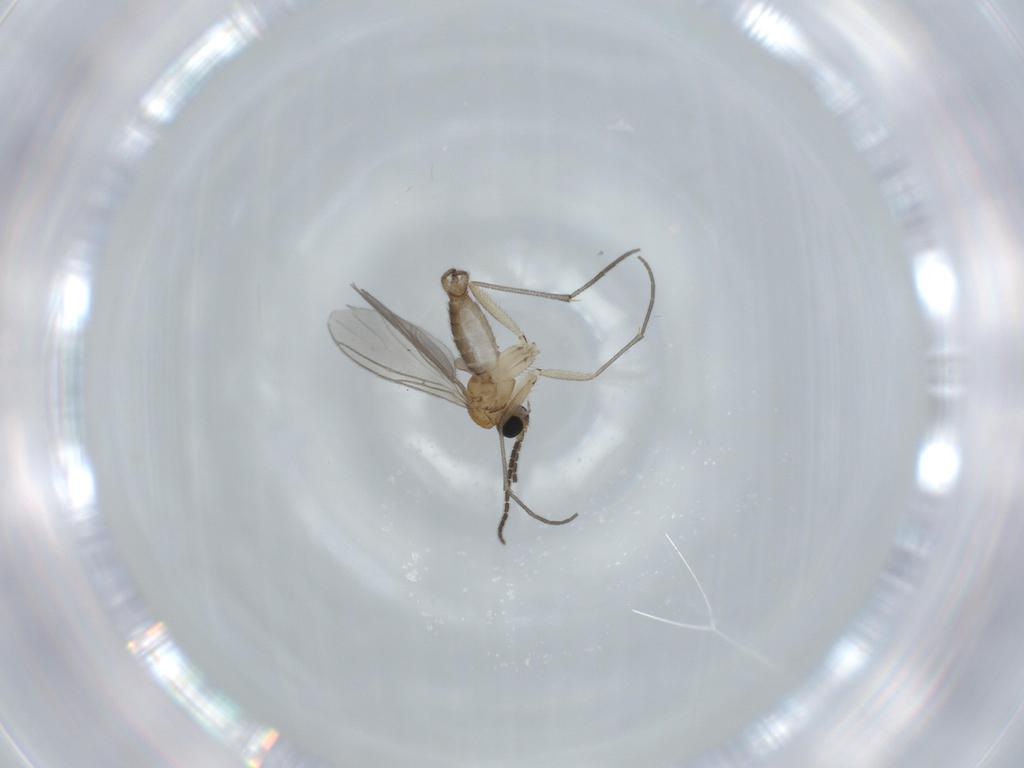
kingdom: Animalia
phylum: Arthropoda
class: Insecta
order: Diptera
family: Sciaridae
